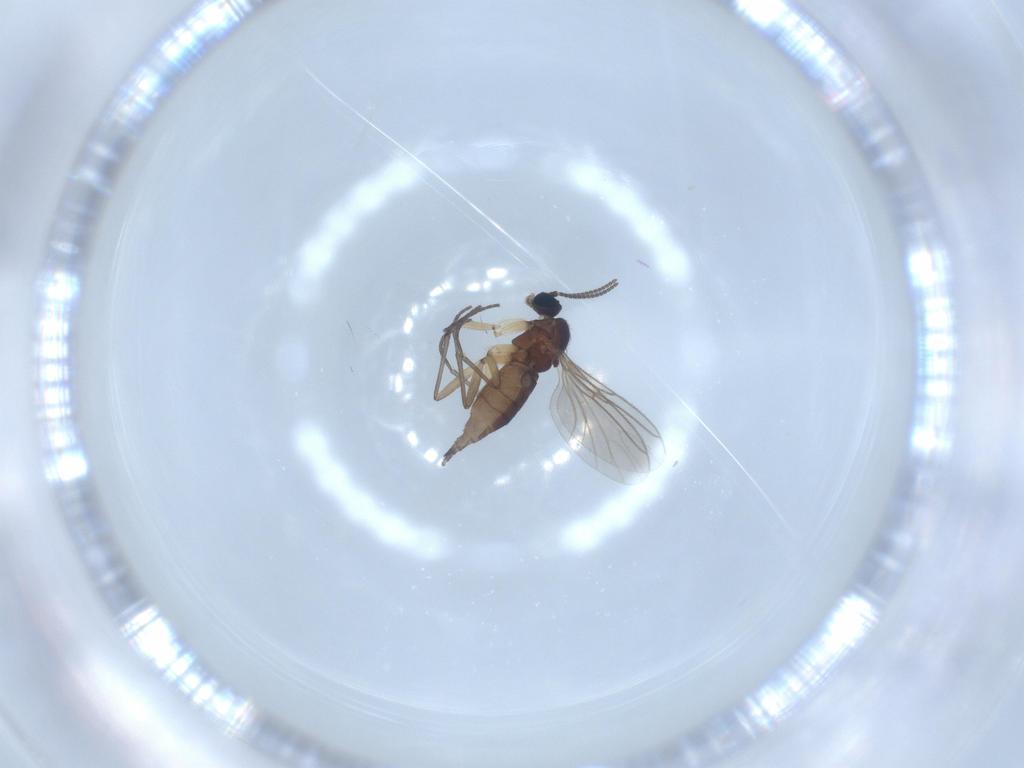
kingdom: Animalia
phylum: Arthropoda
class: Insecta
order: Diptera
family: Sciaridae
